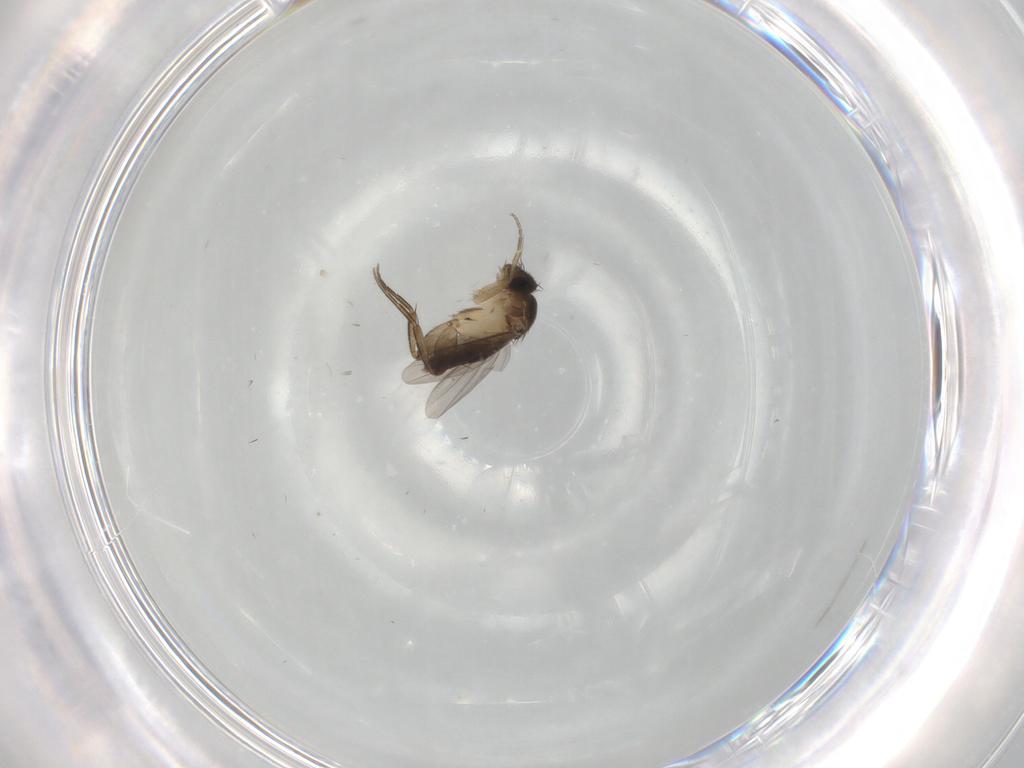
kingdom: Animalia
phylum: Arthropoda
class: Insecta
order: Diptera
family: Phoridae
